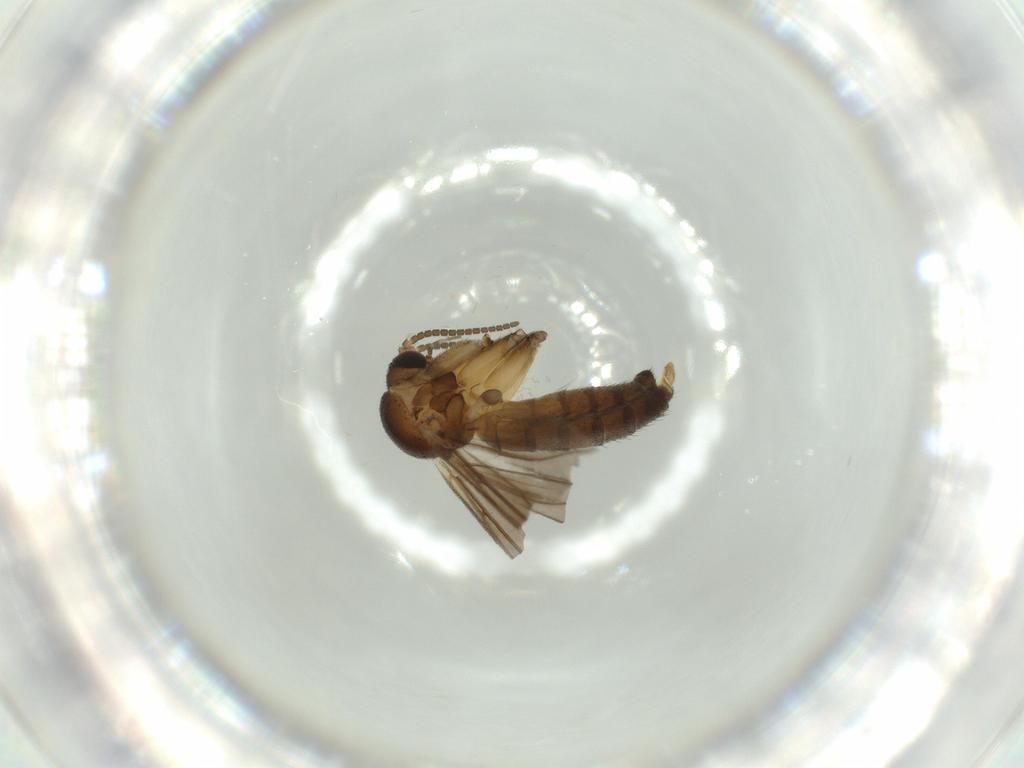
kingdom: Animalia
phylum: Arthropoda
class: Insecta
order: Diptera
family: Mycetophilidae
